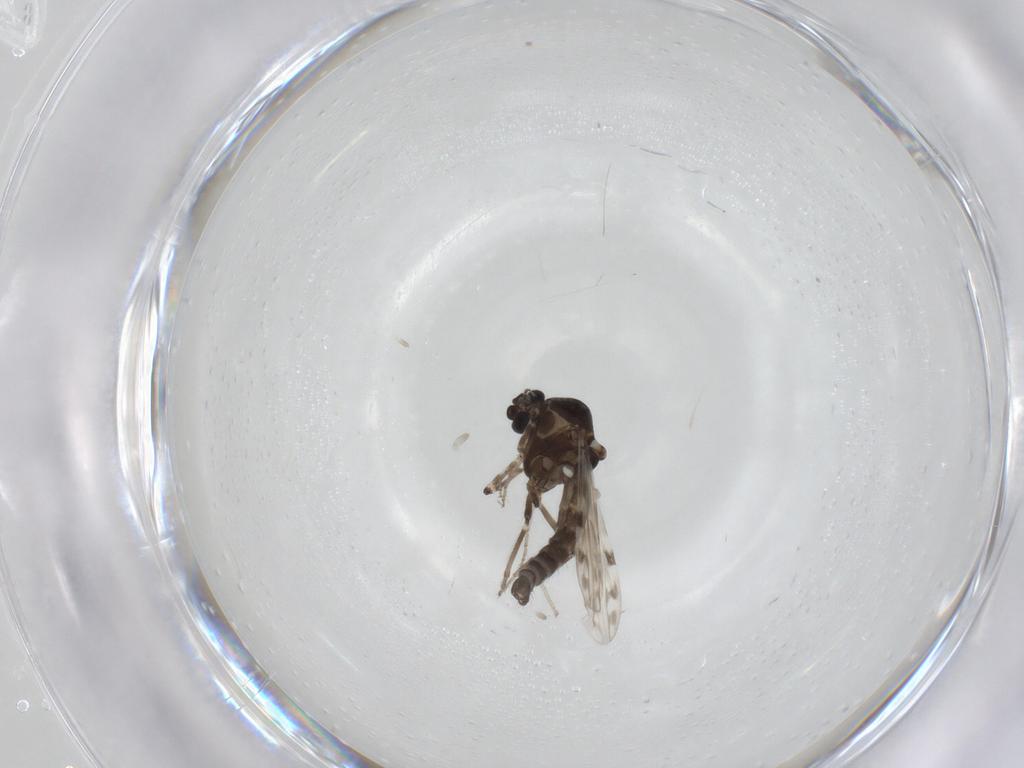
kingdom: Animalia
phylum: Arthropoda
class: Insecta
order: Diptera
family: Ceratopogonidae
